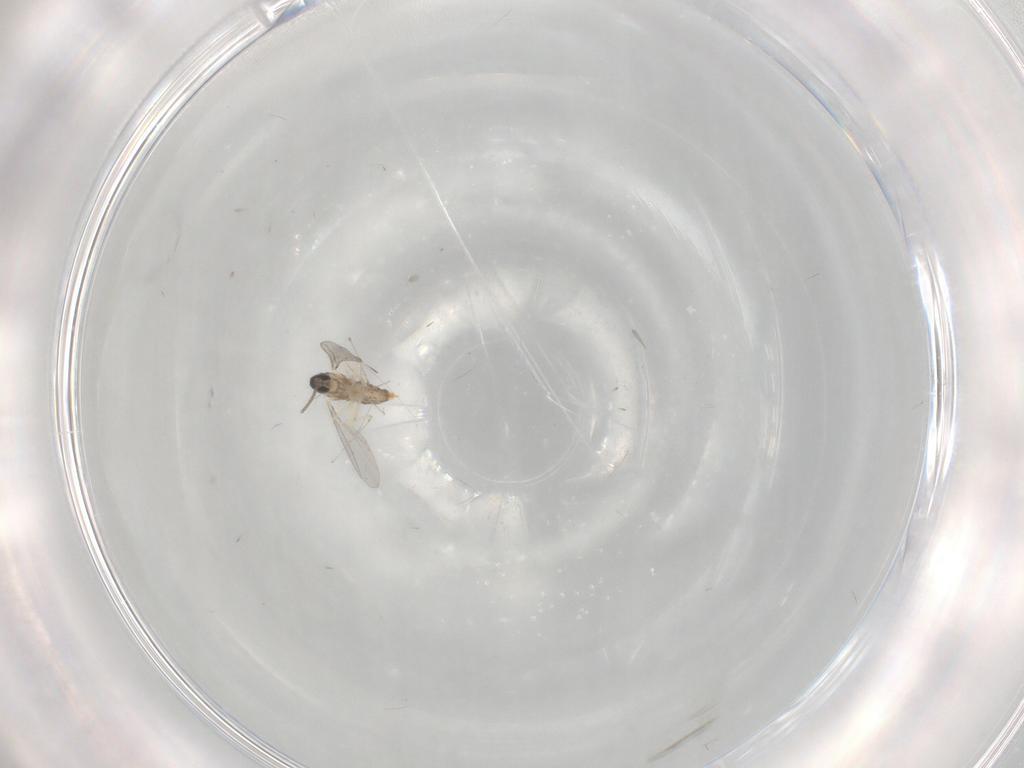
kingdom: Animalia
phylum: Arthropoda
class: Insecta
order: Diptera
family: Cecidomyiidae
